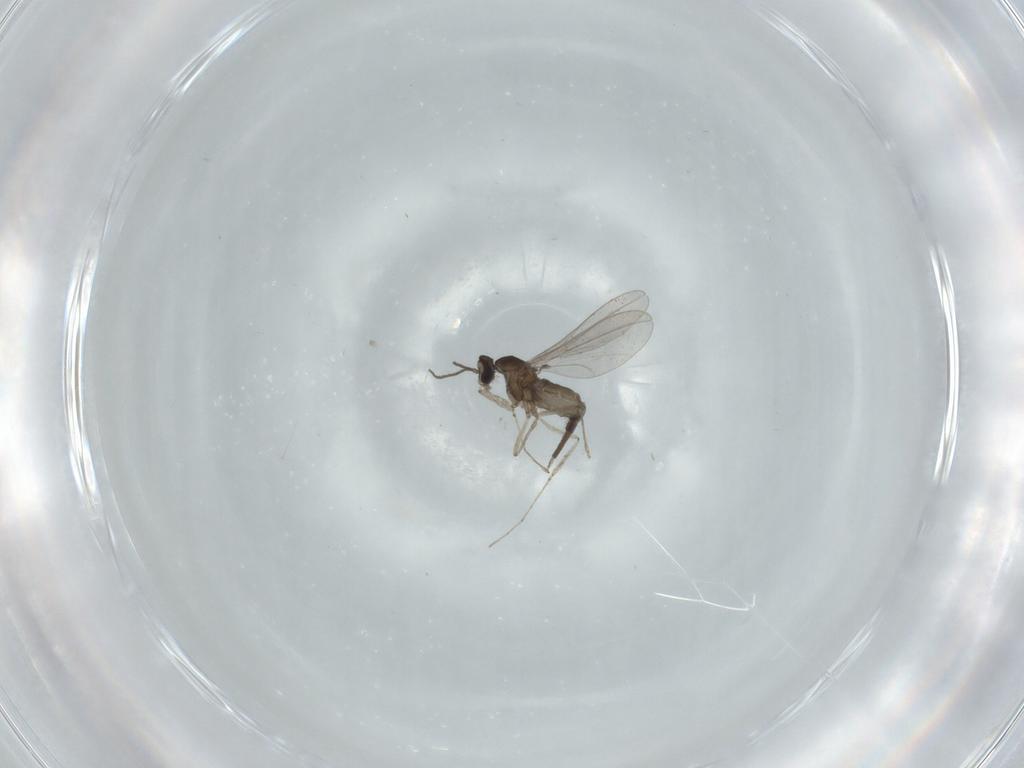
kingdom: Animalia
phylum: Arthropoda
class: Insecta
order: Diptera
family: Cecidomyiidae
